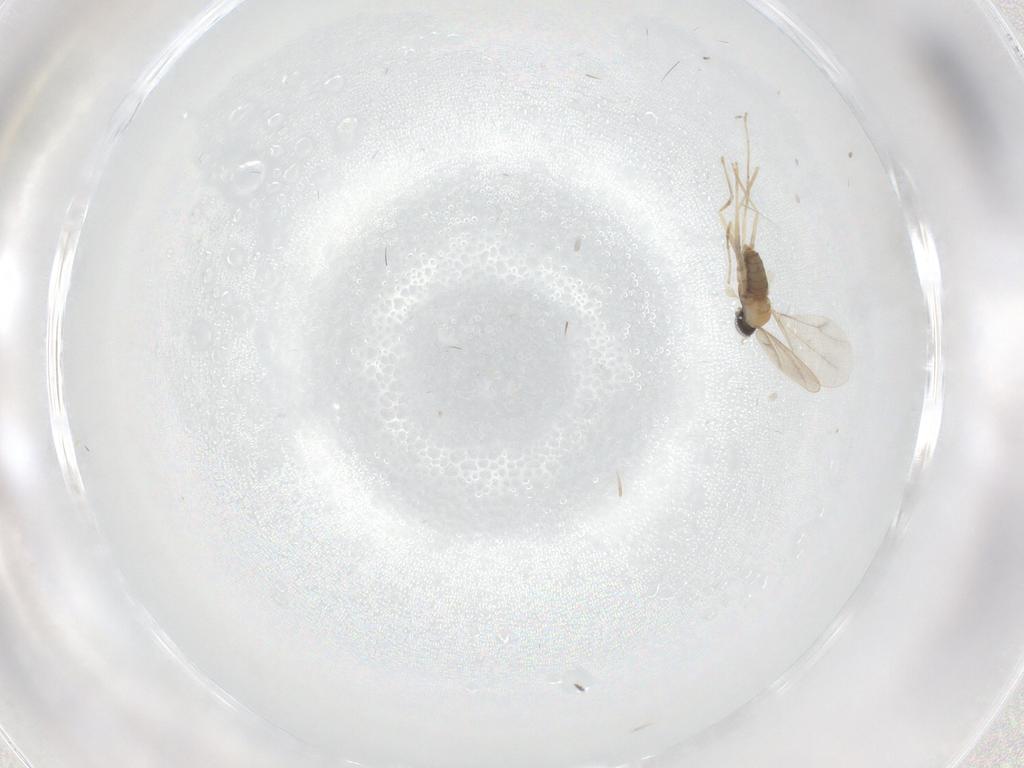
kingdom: Animalia
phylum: Arthropoda
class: Insecta
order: Diptera
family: Cecidomyiidae
